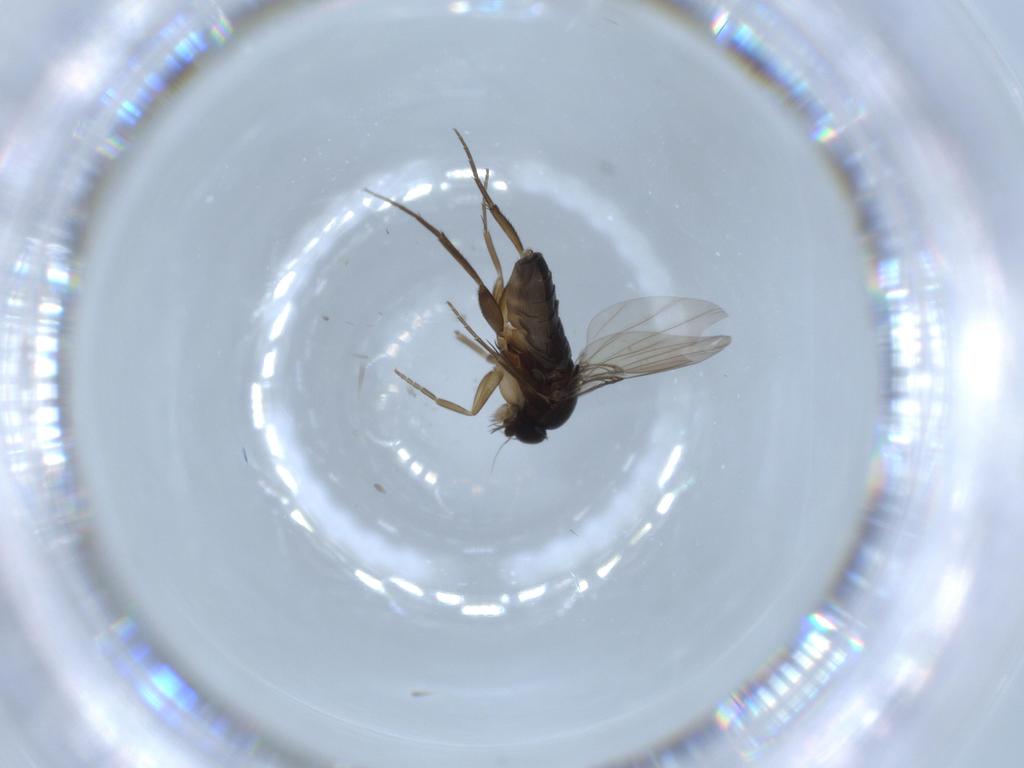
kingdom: Animalia
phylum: Arthropoda
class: Insecta
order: Diptera
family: Phoridae
